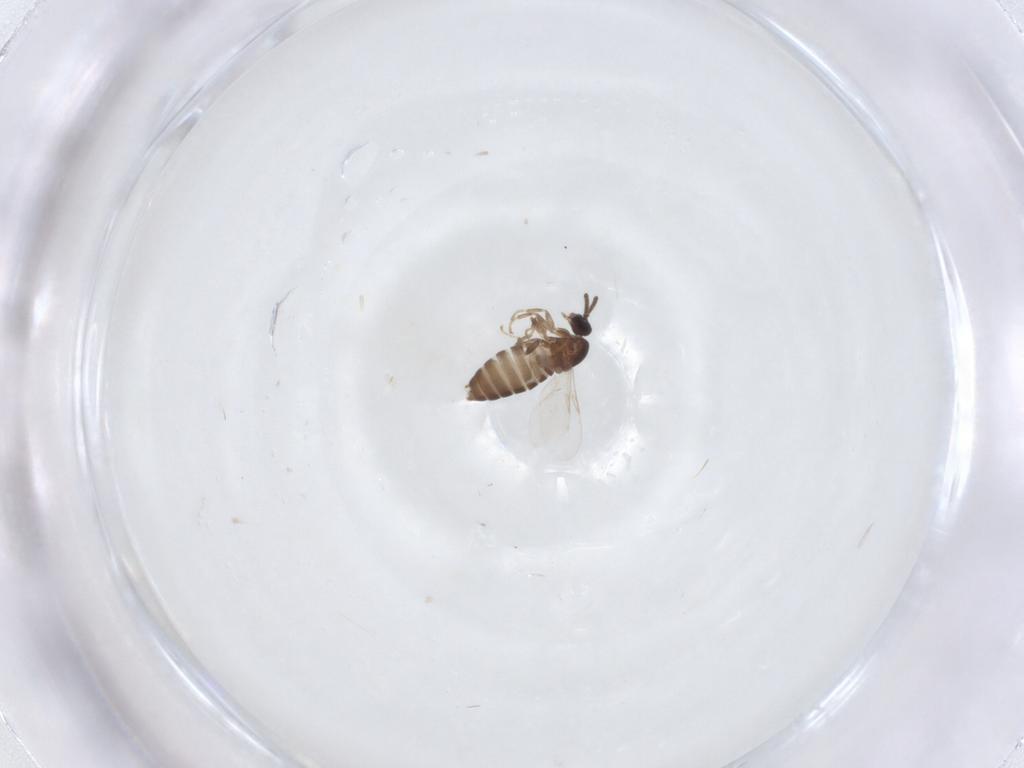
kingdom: Animalia
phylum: Arthropoda
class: Insecta
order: Diptera
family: Scatopsidae
